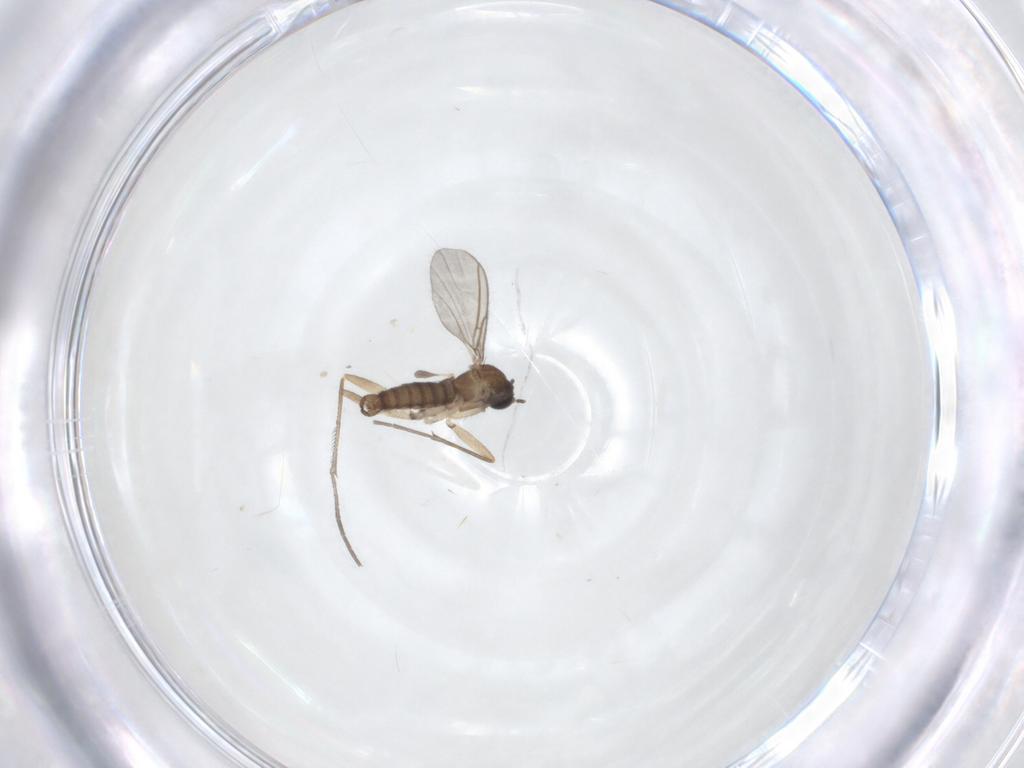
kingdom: Animalia
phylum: Arthropoda
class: Insecta
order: Diptera
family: Sciaridae
